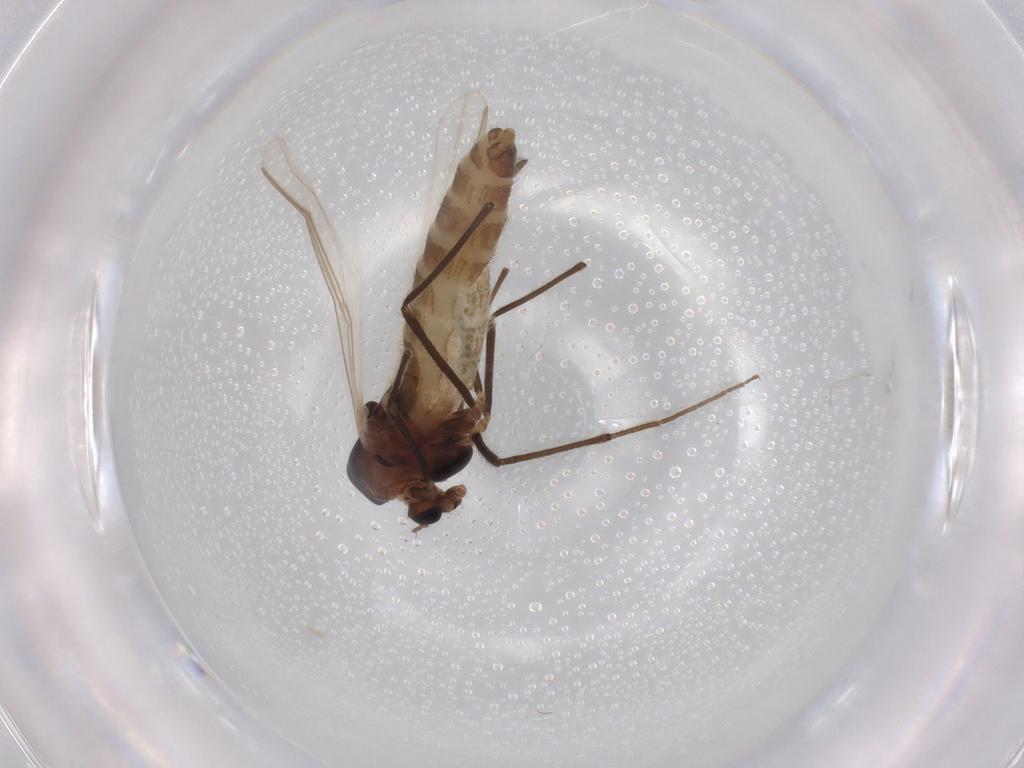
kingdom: Animalia
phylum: Arthropoda
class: Insecta
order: Diptera
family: Chironomidae
